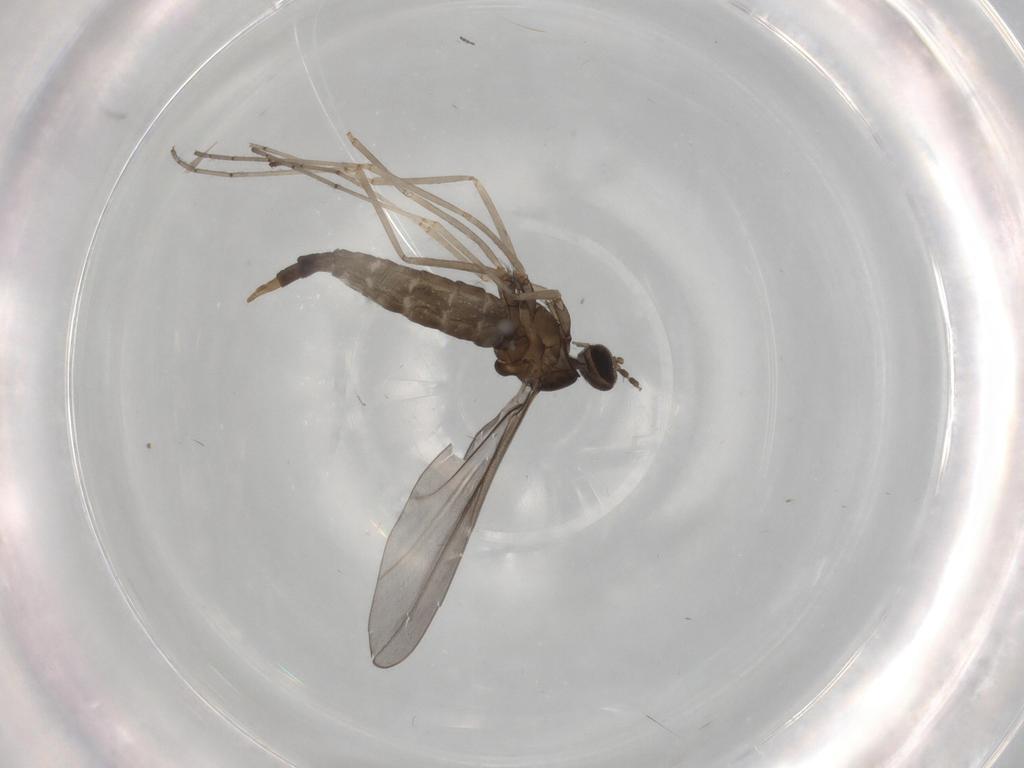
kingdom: Animalia
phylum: Arthropoda
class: Insecta
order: Diptera
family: Cecidomyiidae
